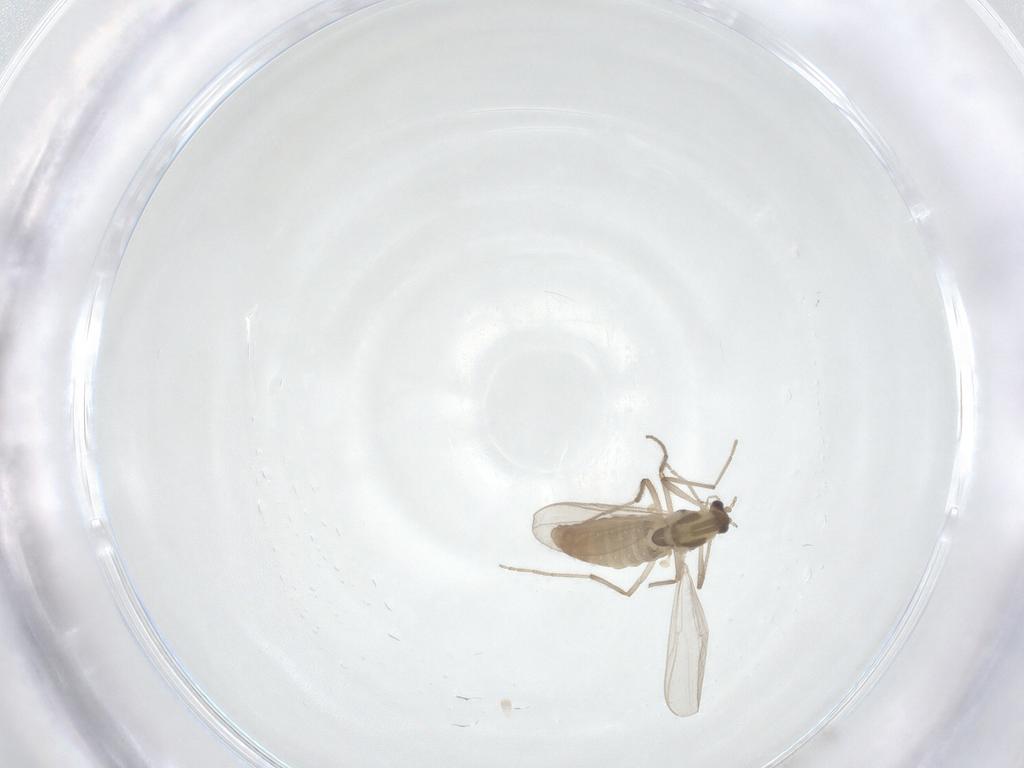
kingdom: Animalia
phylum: Arthropoda
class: Insecta
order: Diptera
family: Chironomidae
